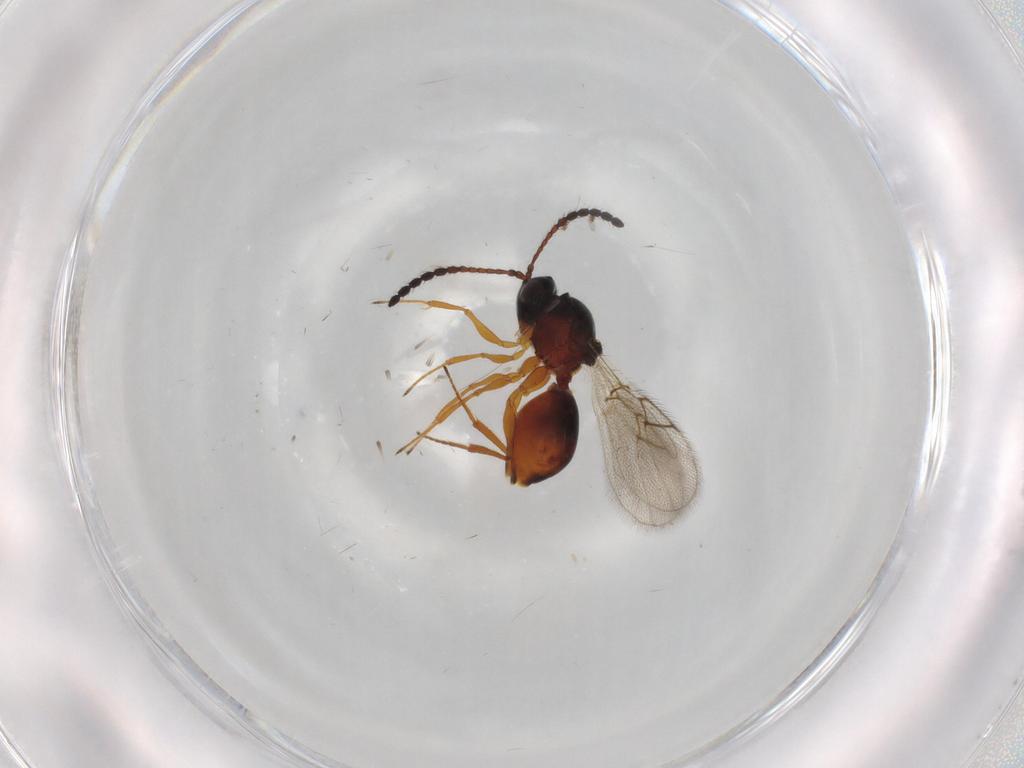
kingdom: Animalia
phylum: Arthropoda
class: Insecta
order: Hymenoptera
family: Figitidae
